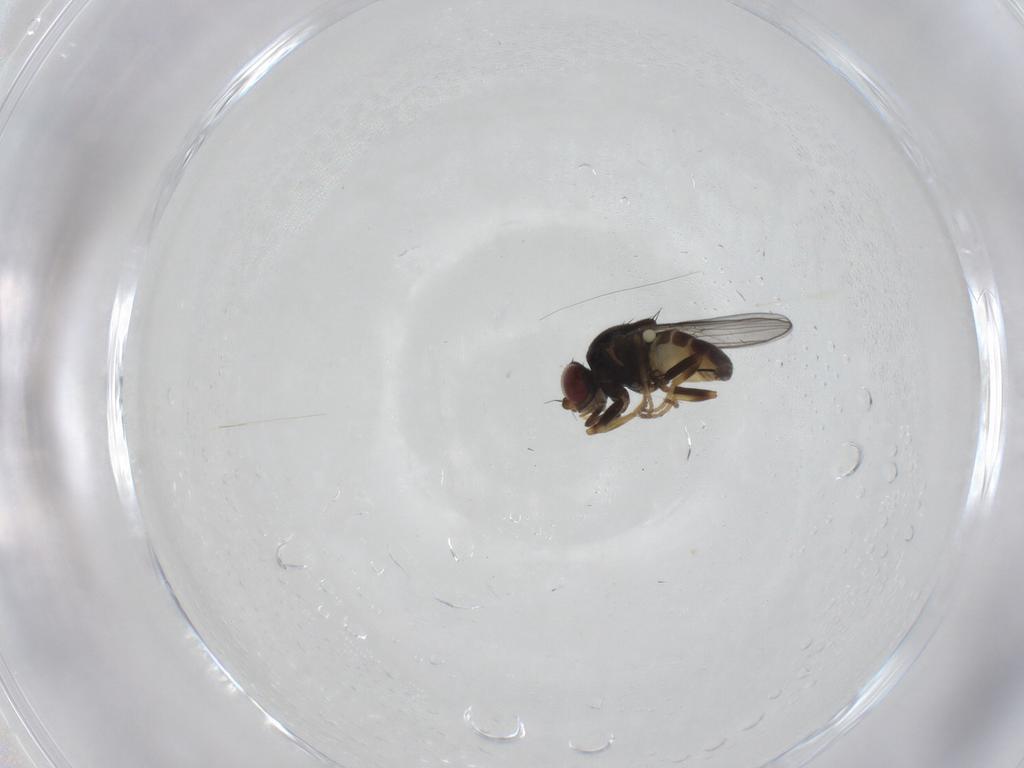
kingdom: Animalia
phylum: Arthropoda
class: Insecta
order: Diptera
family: Chloropidae
